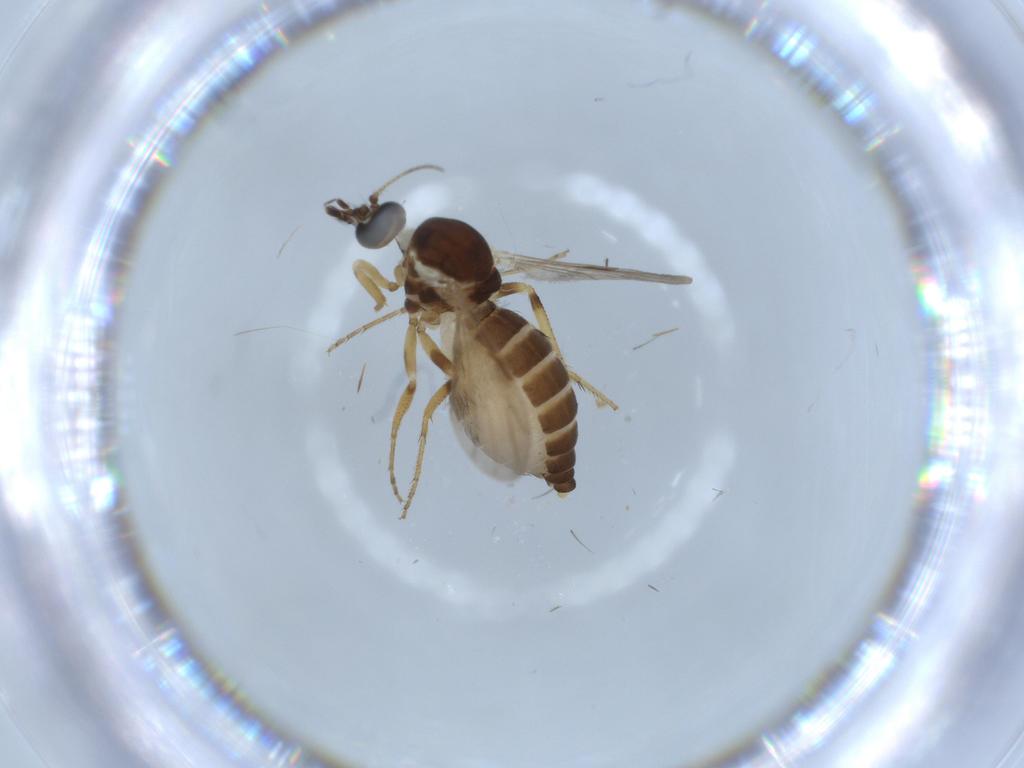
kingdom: Animalia
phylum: Arthropoda
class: Insecta
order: Diptera
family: Ceratopogonidae
